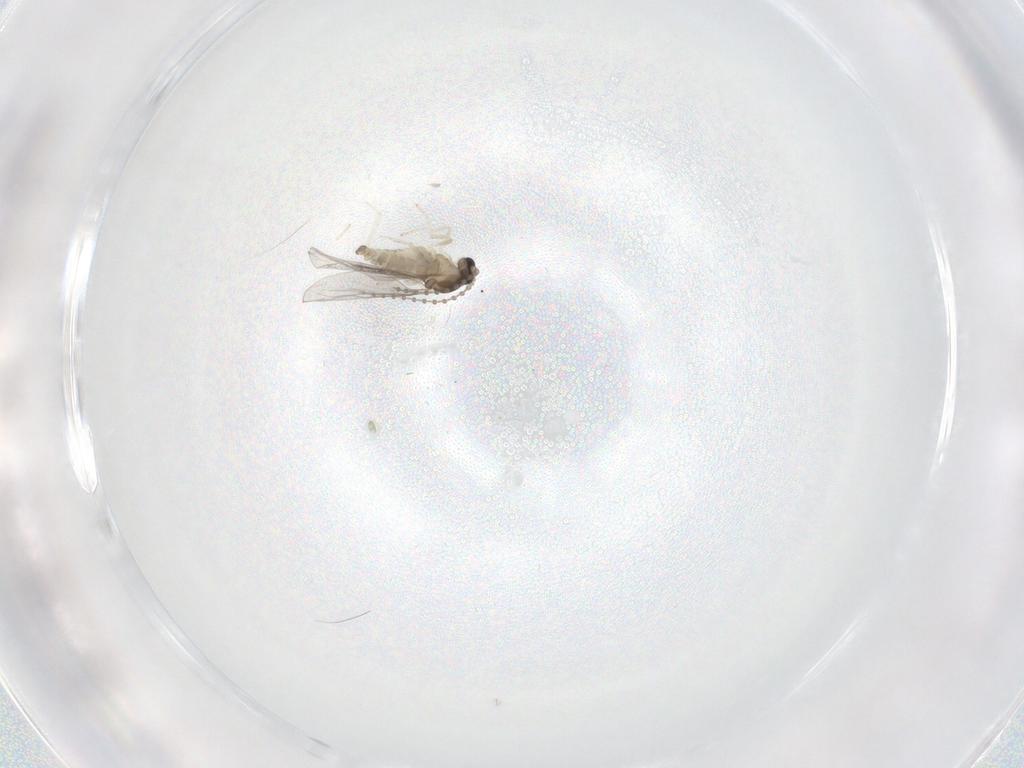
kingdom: Animalia
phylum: Arthropoda
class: Insecta
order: Diptera
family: Cecidomyiidae
